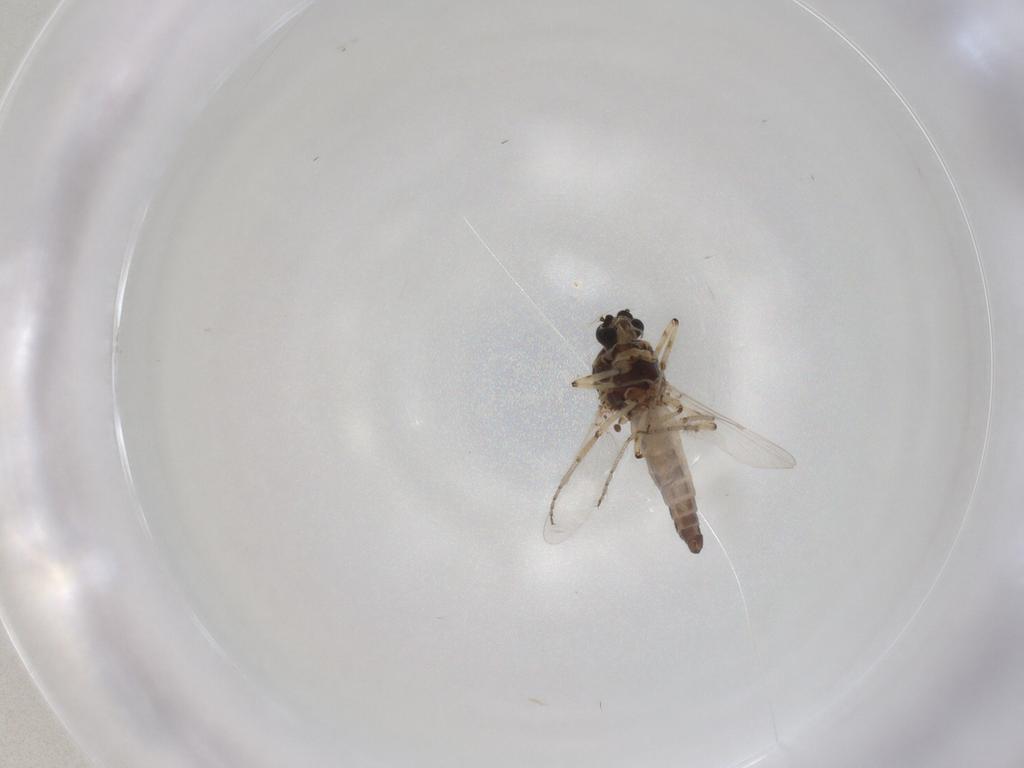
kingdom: Animalia
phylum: Arthropoda
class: Insecta
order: Diptera
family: Ceratopogonidae
